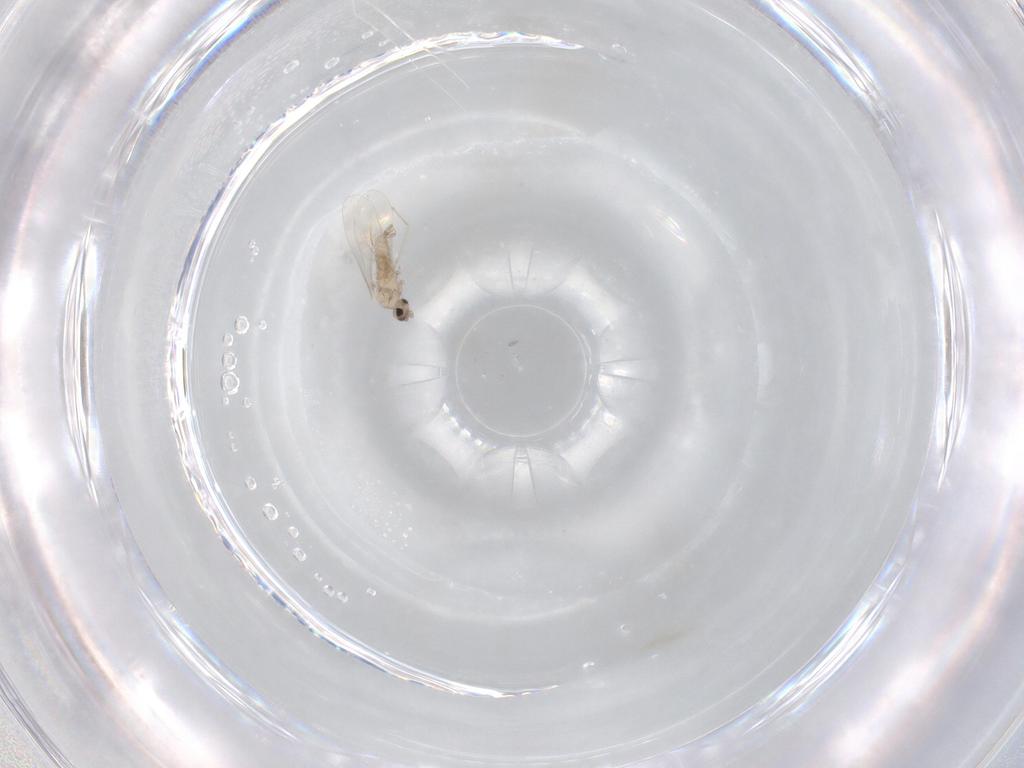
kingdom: Animalia
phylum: Arthropoda
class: Insecta
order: Diptera
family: Cecidomyiidae
